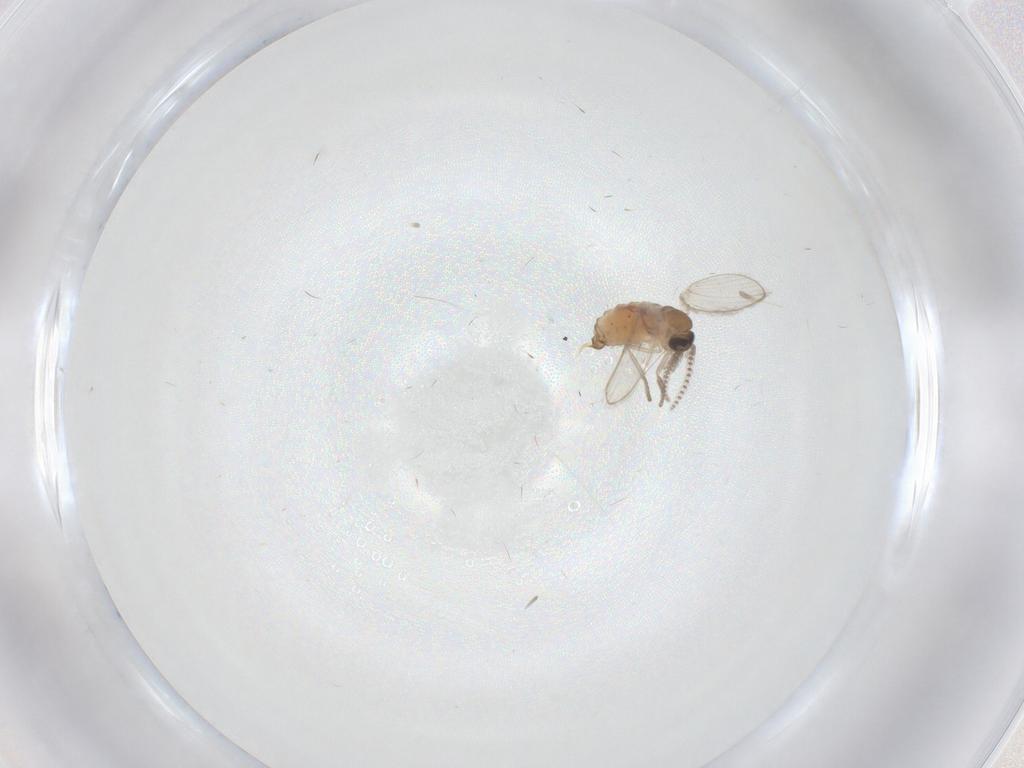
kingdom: Animalia
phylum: Arthropoda
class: Insecta
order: Diptera
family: Psychodidae
